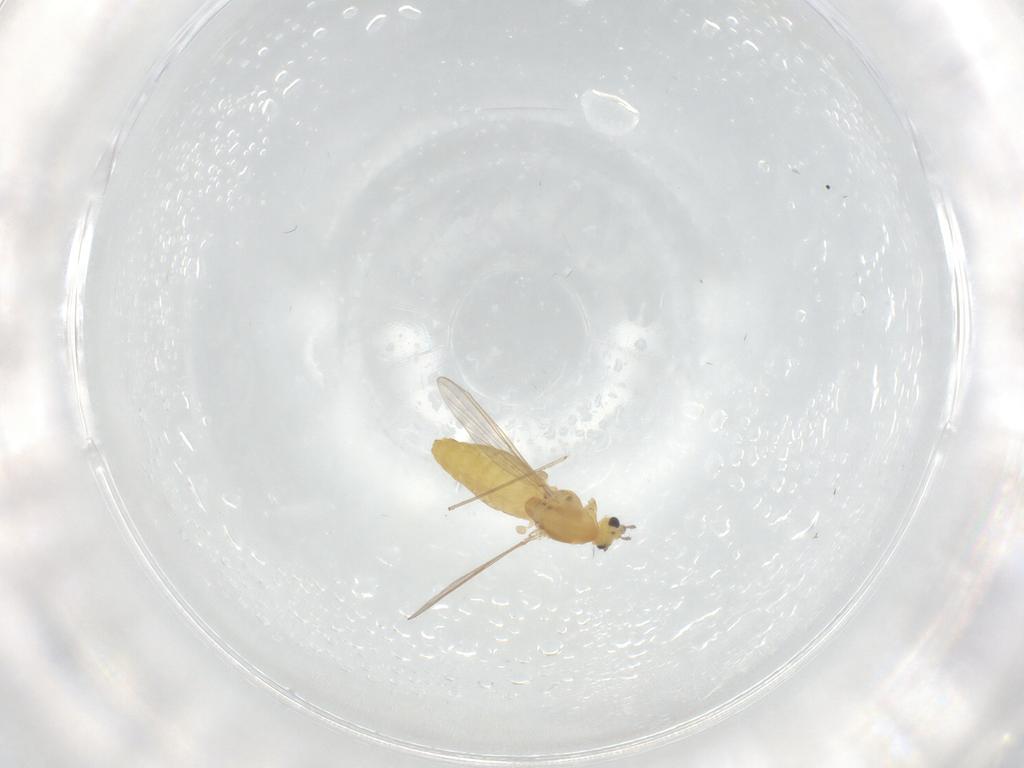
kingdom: Animalia
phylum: Arthropoda
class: Insecta
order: Diptera
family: Chironomidae
